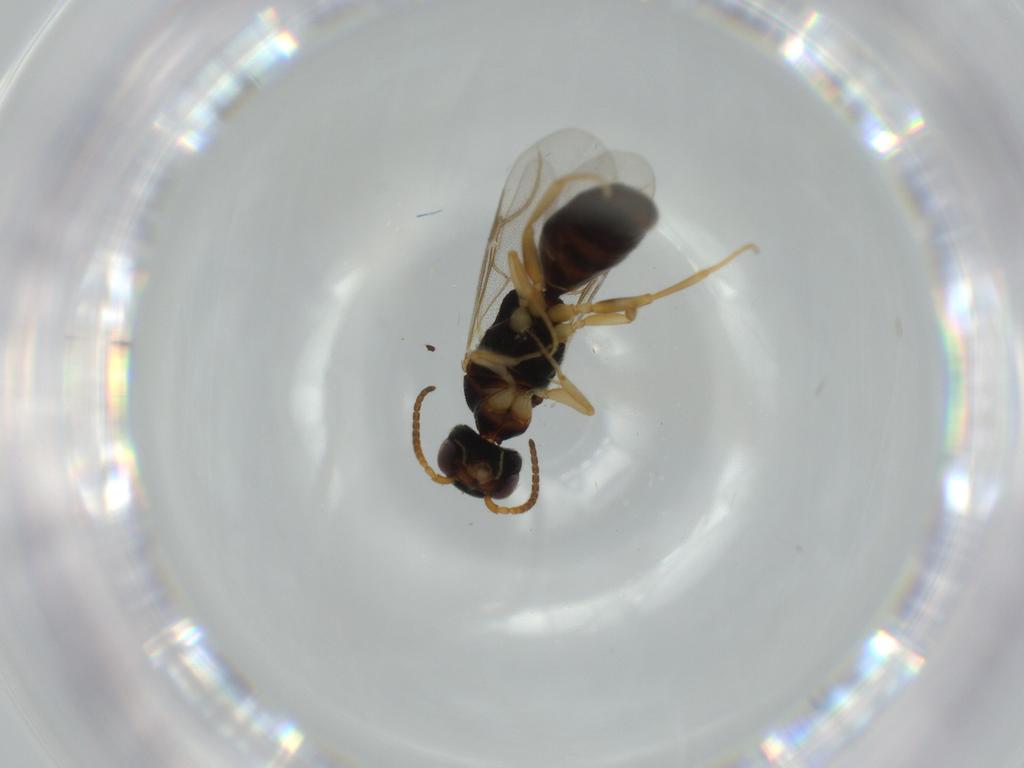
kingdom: Animalia
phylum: Arthropoda
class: Insecta
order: Hymenoptera
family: Bethylidae
